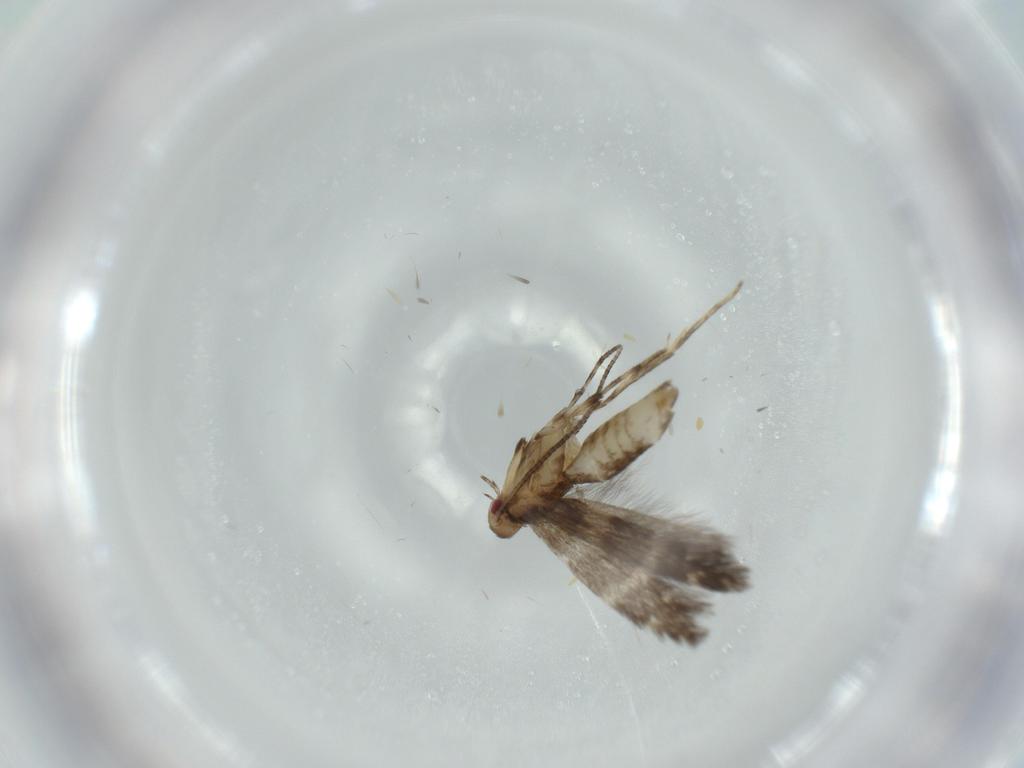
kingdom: Animalia
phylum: Arthropoda
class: Insecta
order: Lepidoptera
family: Gracillariidae
